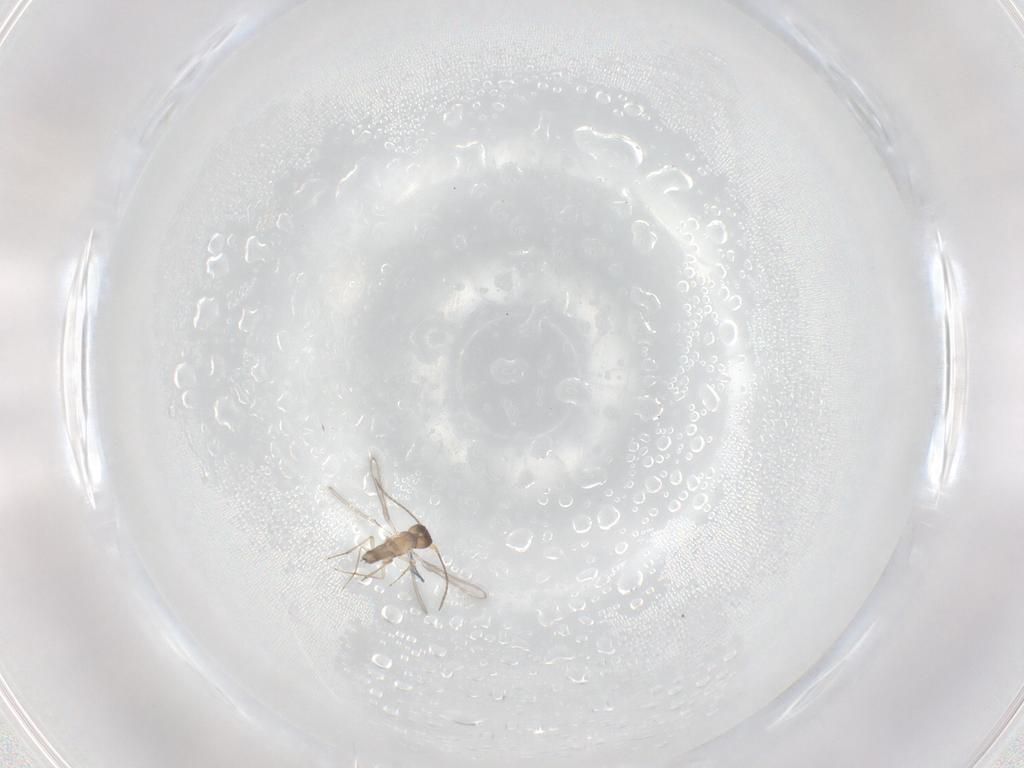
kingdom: Animalia
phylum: Arthropoda
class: Insecta
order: Hymenoptera
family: Mymaridae
